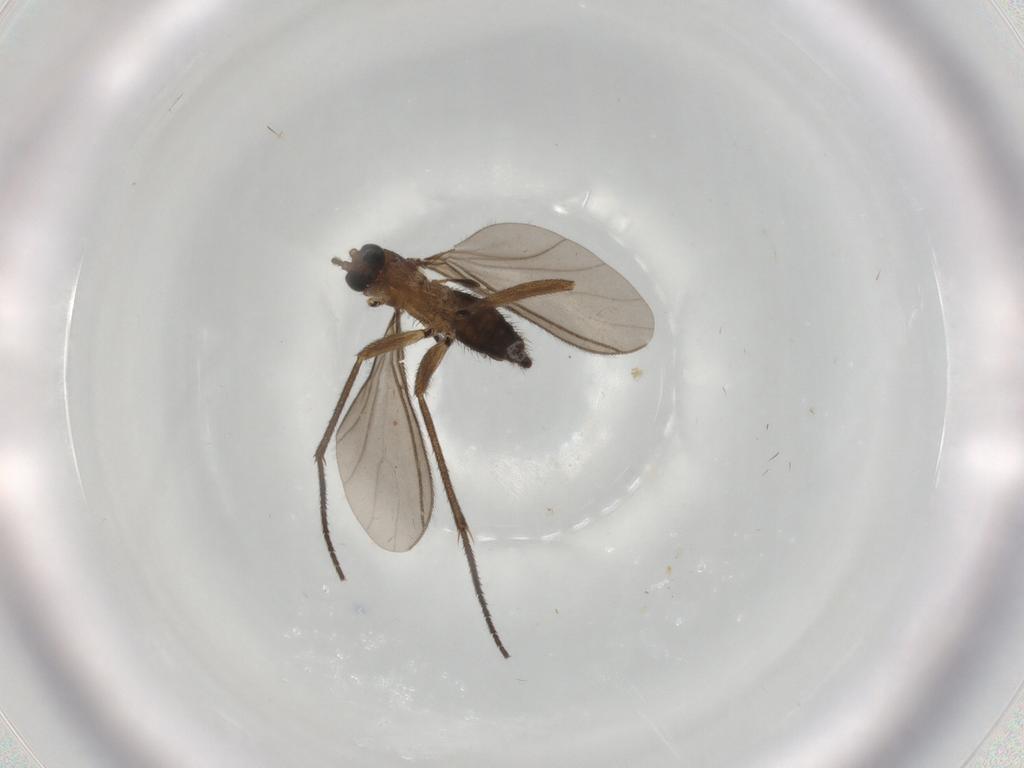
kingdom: Animalia
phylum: Arthropoda
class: Insecta
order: Diptera
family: Sciaridae
